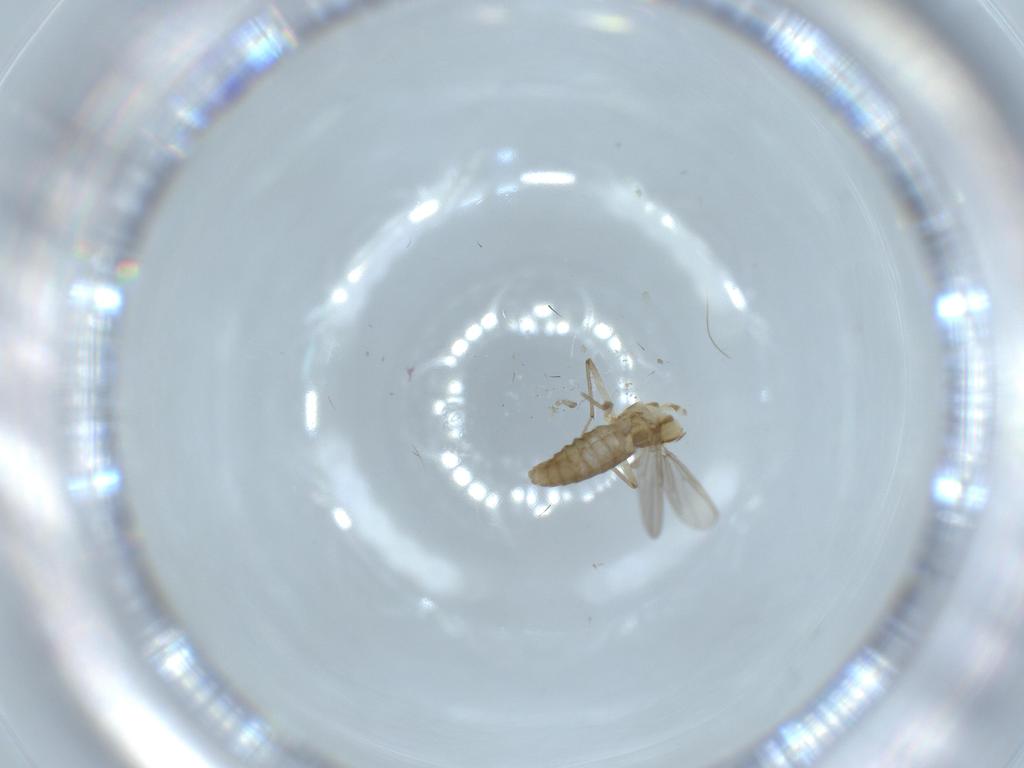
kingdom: Animalia
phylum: Arthropoda
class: Insecta
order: Diptera
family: Chironomidae
